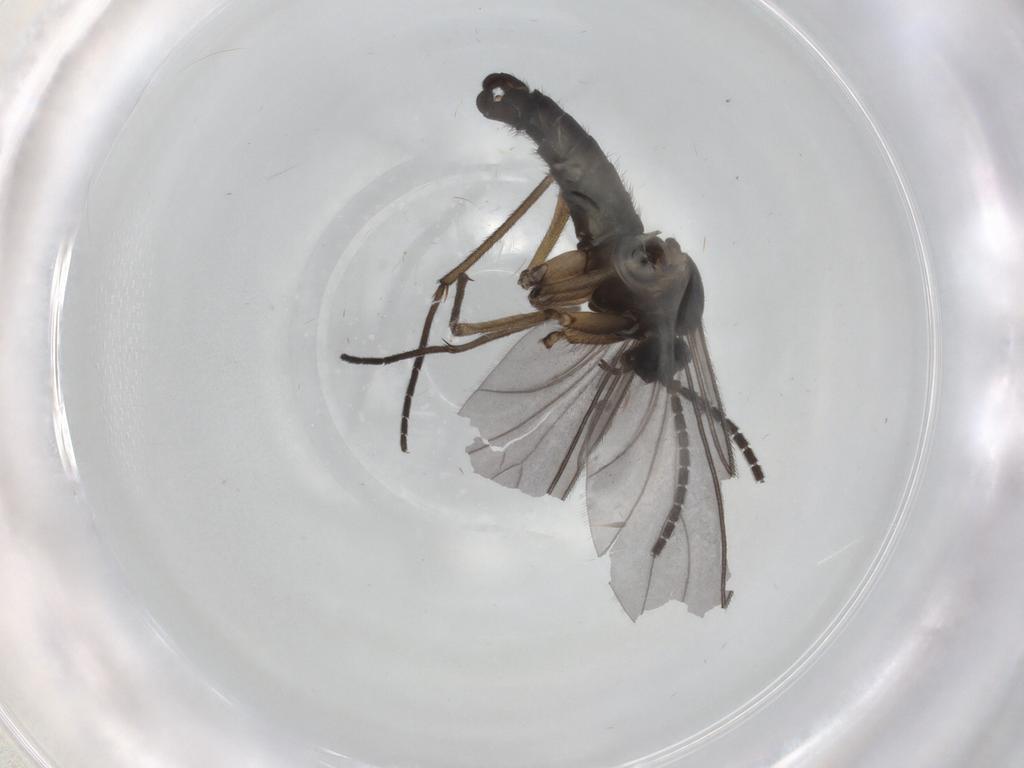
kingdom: Animalia
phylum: Arthropoda
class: Insecta
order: Diptera
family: Sciaridae
